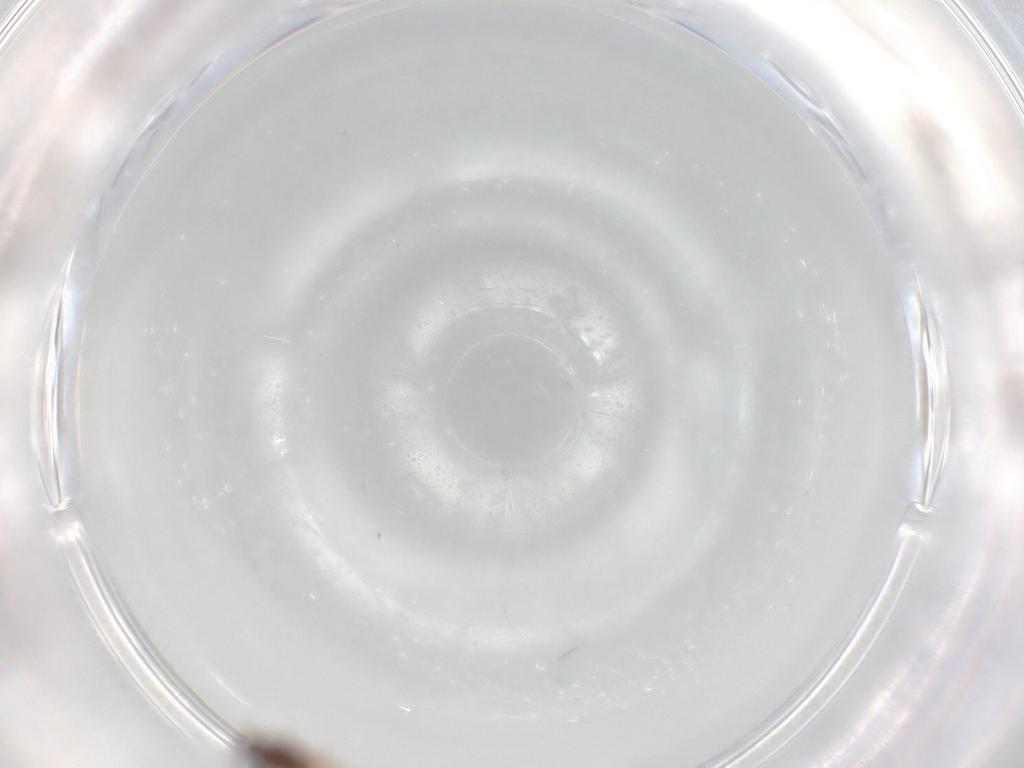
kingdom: Animalia
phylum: Arthropoda
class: Insecta
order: Hemiptera
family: Aphididae
